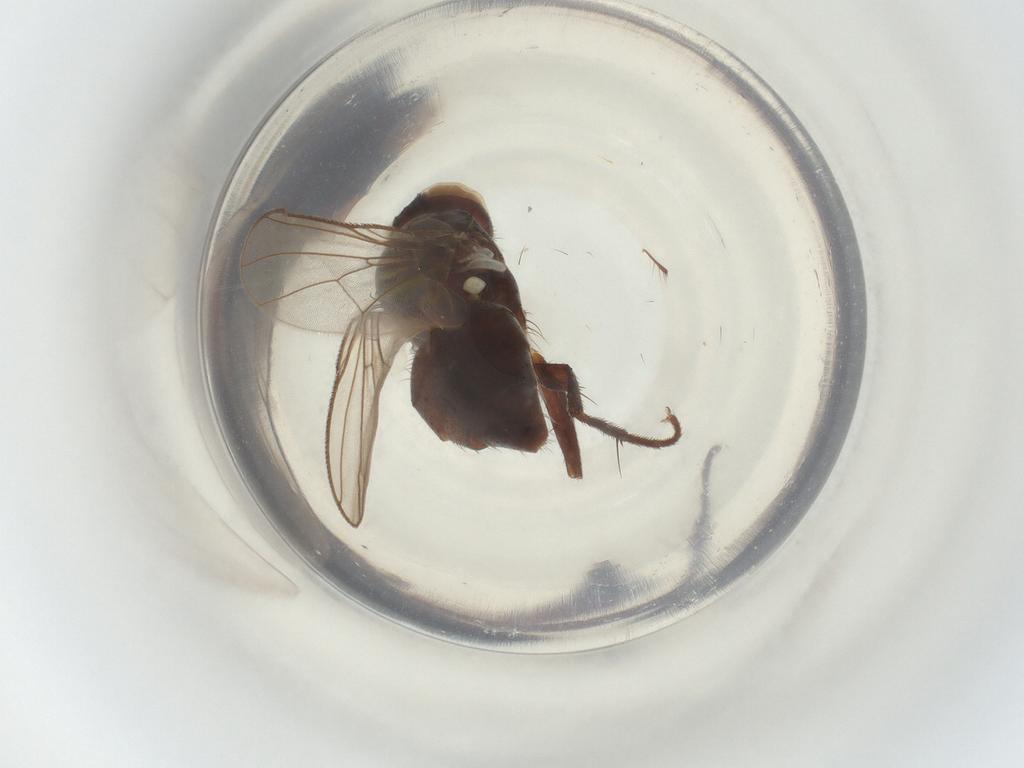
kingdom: Animalia
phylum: Arthropoda
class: Insecta
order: Diptera
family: Muscidae
